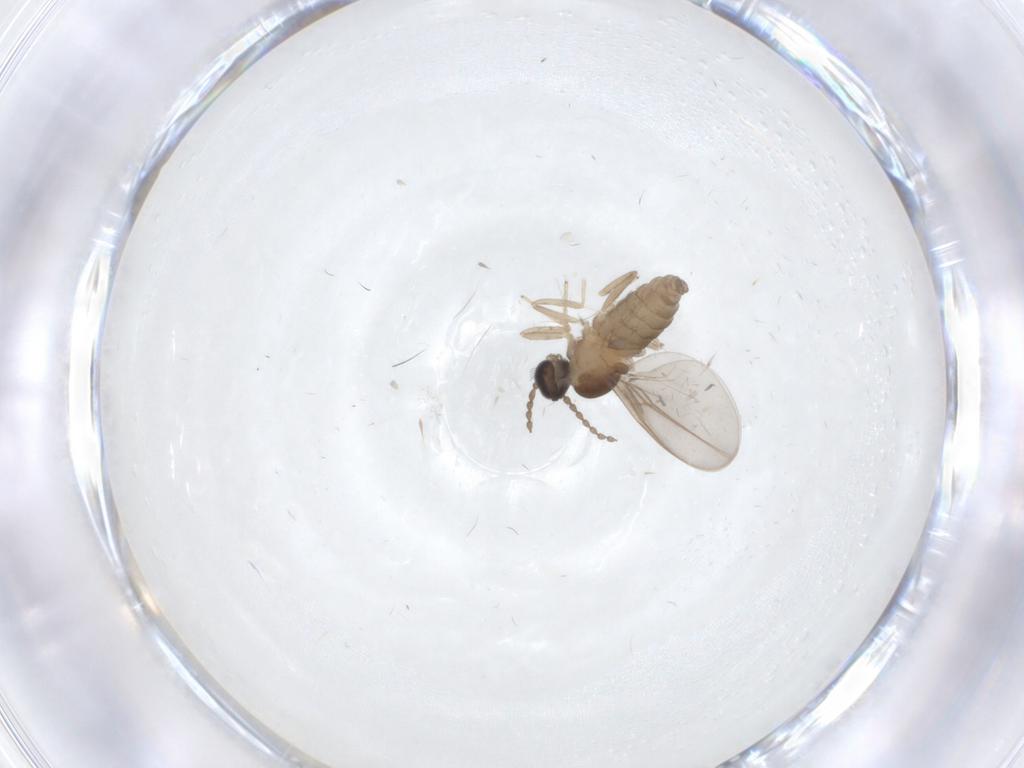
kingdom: Animalia
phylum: Arthropoda
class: Insecta
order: Diptera
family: Cecidomyiidae
